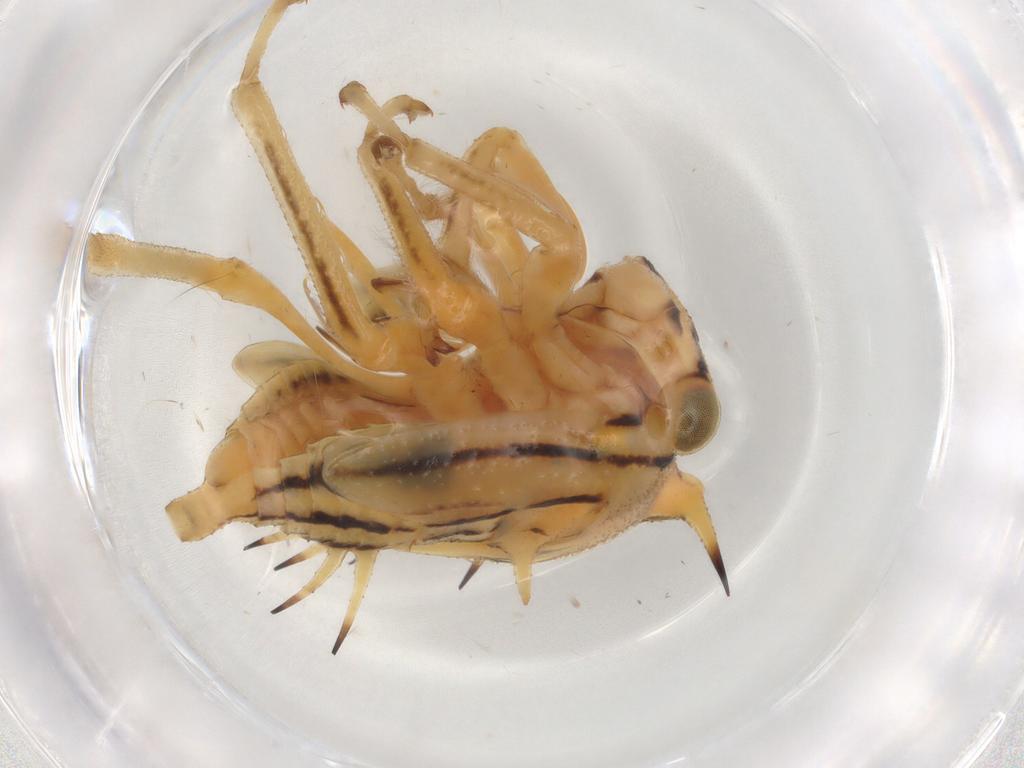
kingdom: Animalia
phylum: Arthropoda
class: Insecta
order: Hemiptera
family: Membracidae
